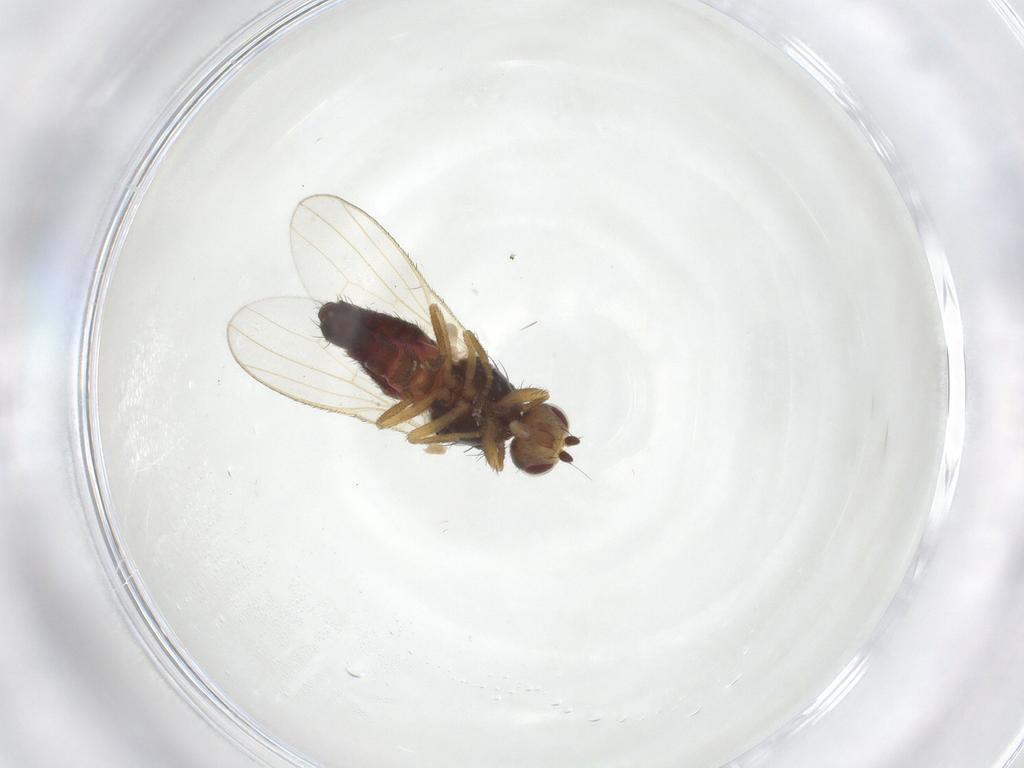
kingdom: Animalia
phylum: Arthropoda
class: Insecta
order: Diptera
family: Heleomyzidae
